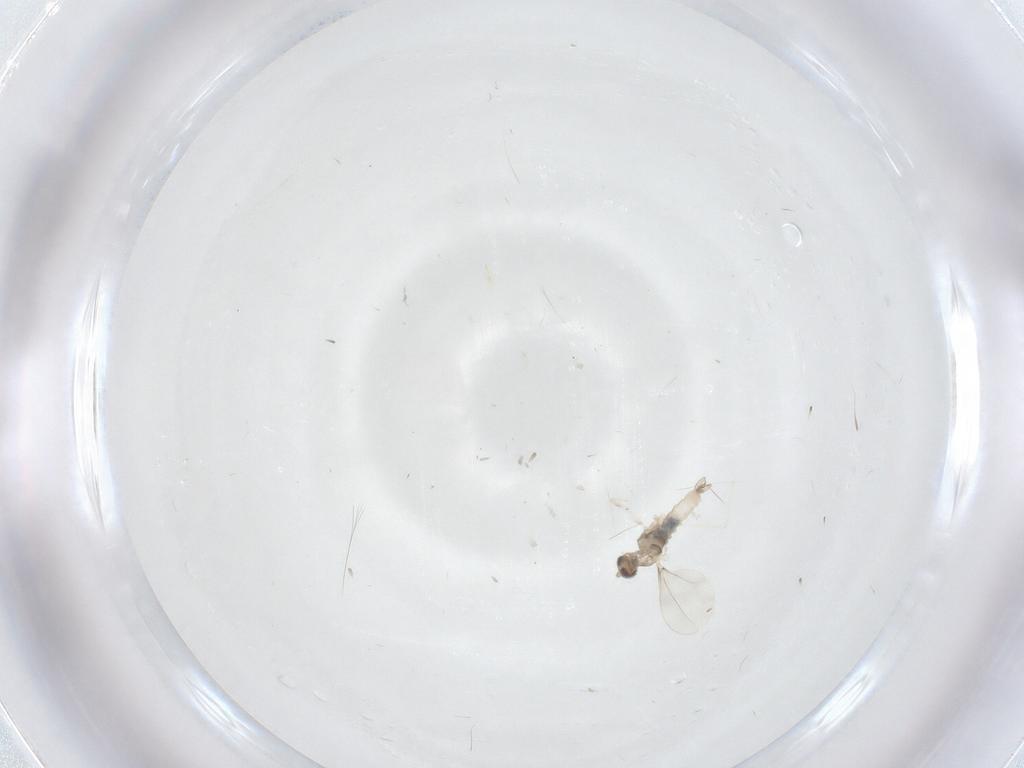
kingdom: Animalia
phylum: Arthropoda
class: Insecta
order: Diptera
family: Cecidomyiidae
